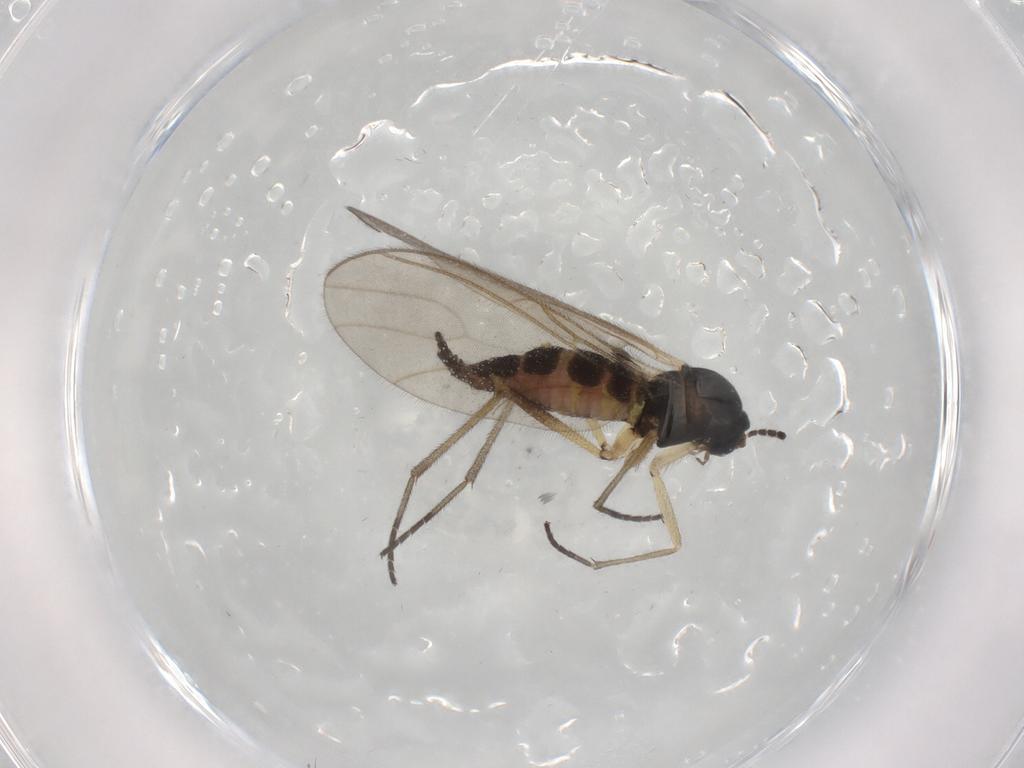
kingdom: Animalia
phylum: Arthropoda
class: Insecta
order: Diptera
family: Sciaridae
